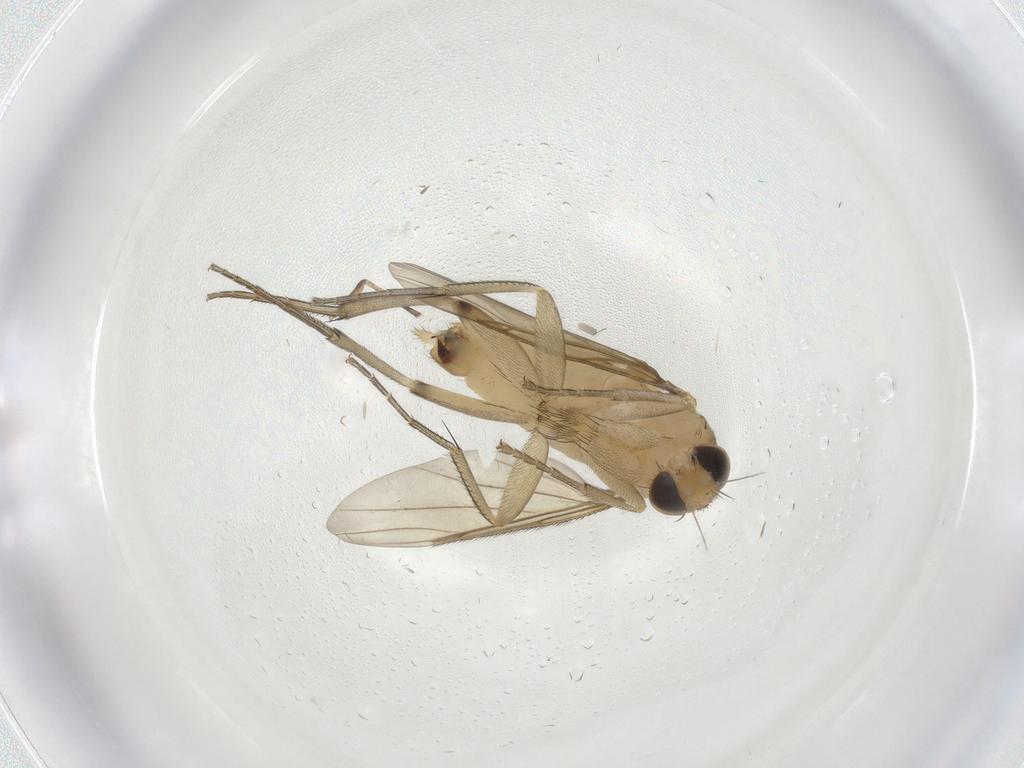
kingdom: Animalia
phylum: Arthropoda
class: Insecta
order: Diptera
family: Phoridae
